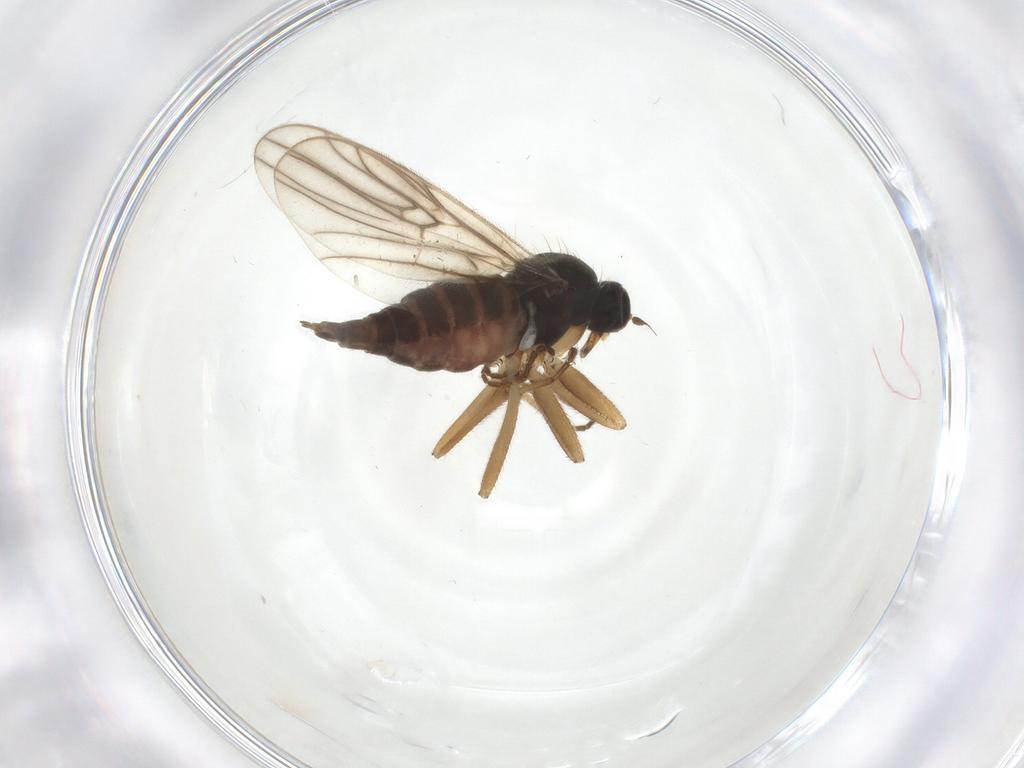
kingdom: Animalia
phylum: Arthropoda
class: Insecta
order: Diptera
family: Hybotidae
